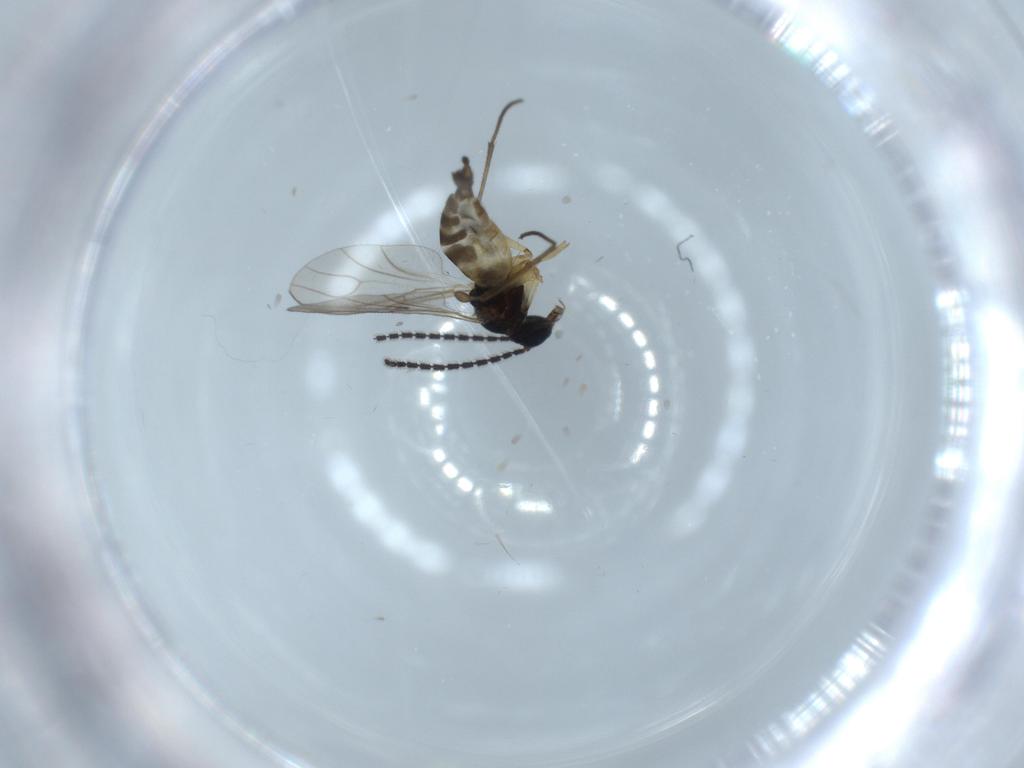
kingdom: Animalia
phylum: Arthropoda
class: Insecta
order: Diptera
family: Sciaridae
